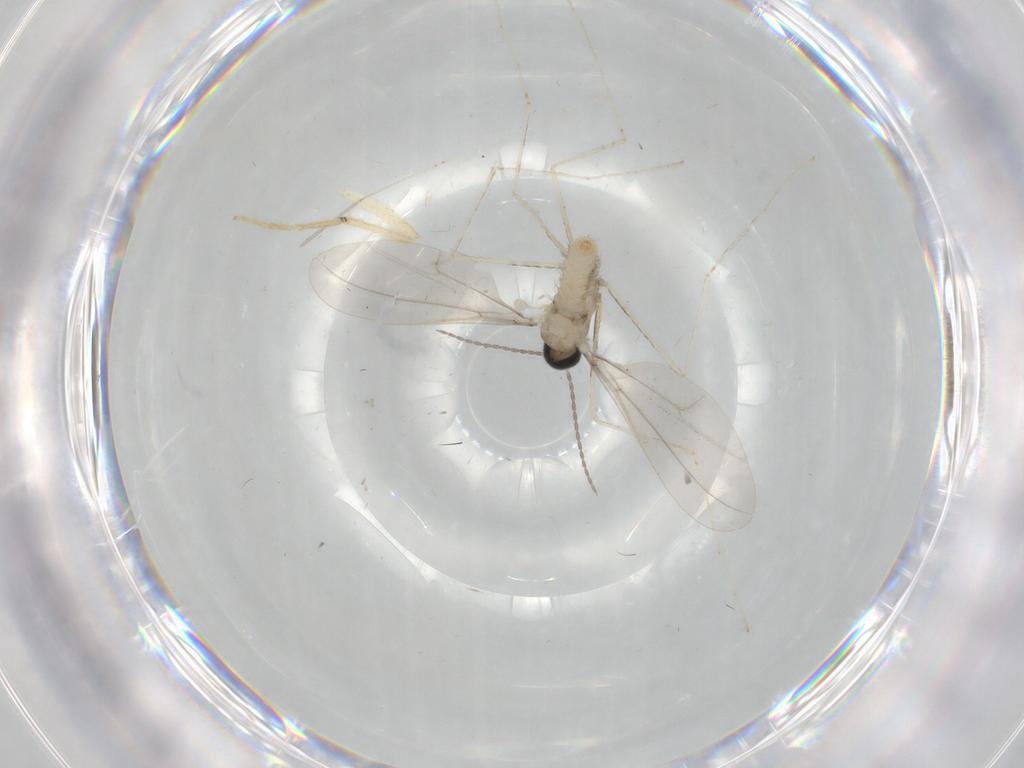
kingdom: Animalia
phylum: Arthropoda
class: Insecta
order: Diptera
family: Chironomidae
